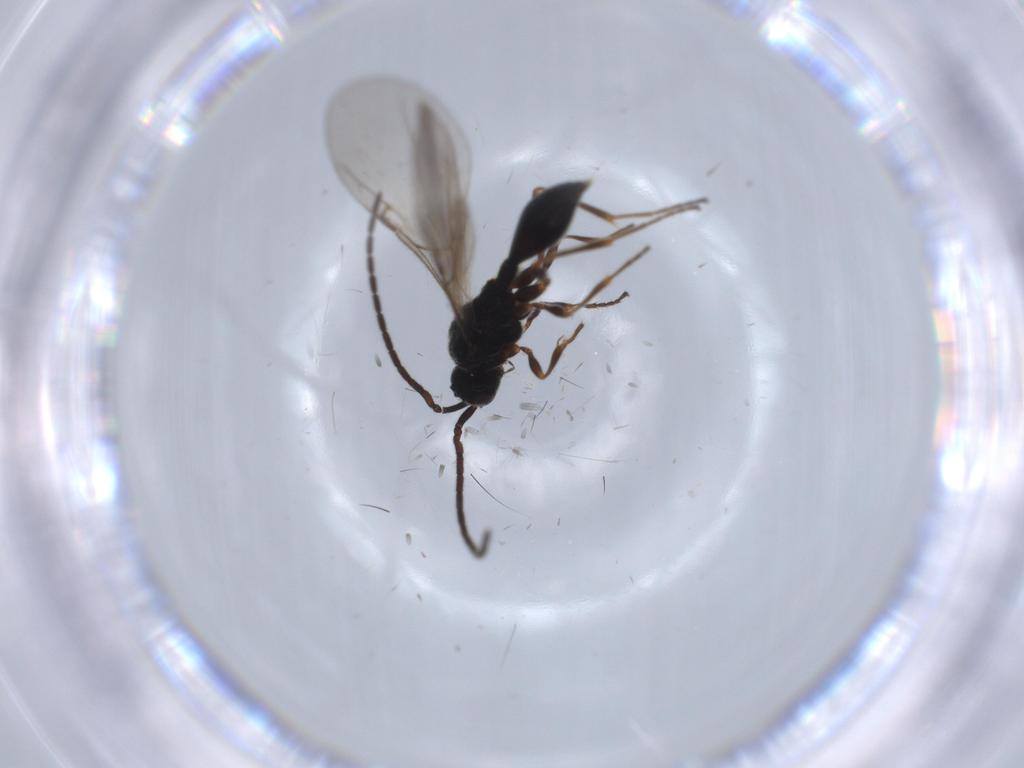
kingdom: Animalia
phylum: Arthropoda
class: Insecta
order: Hymenoptera
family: Ichneumonidae
